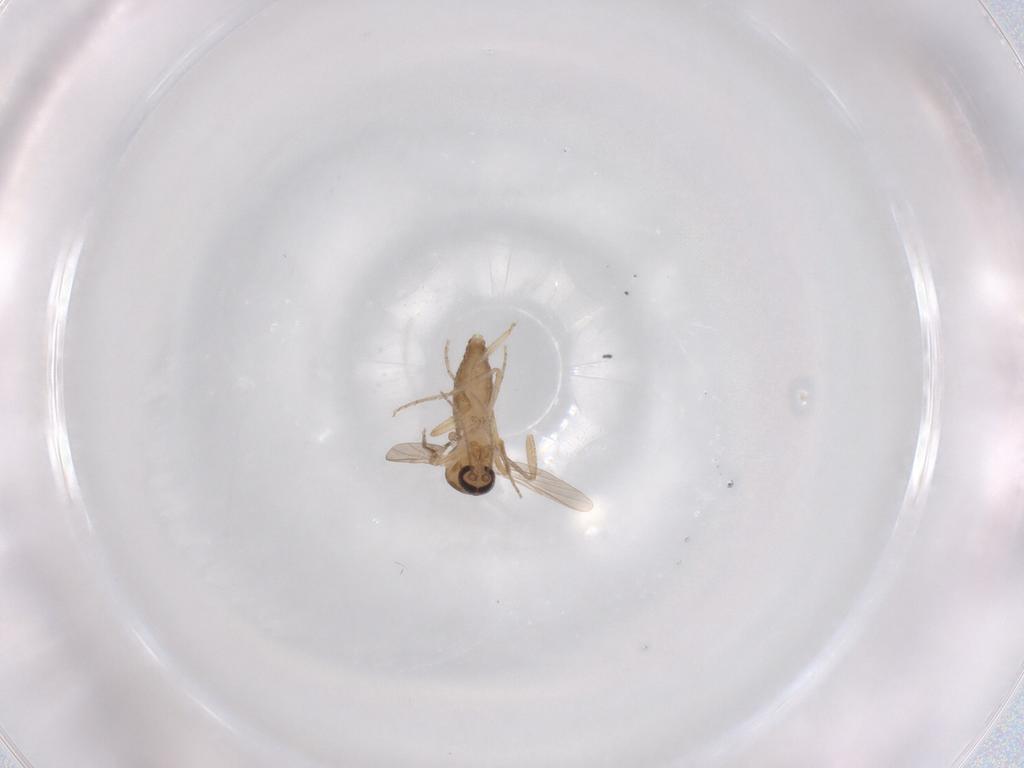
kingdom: Animalia
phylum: Arthropoda
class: Insecta
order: Diptera
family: Ceratopogonidae
